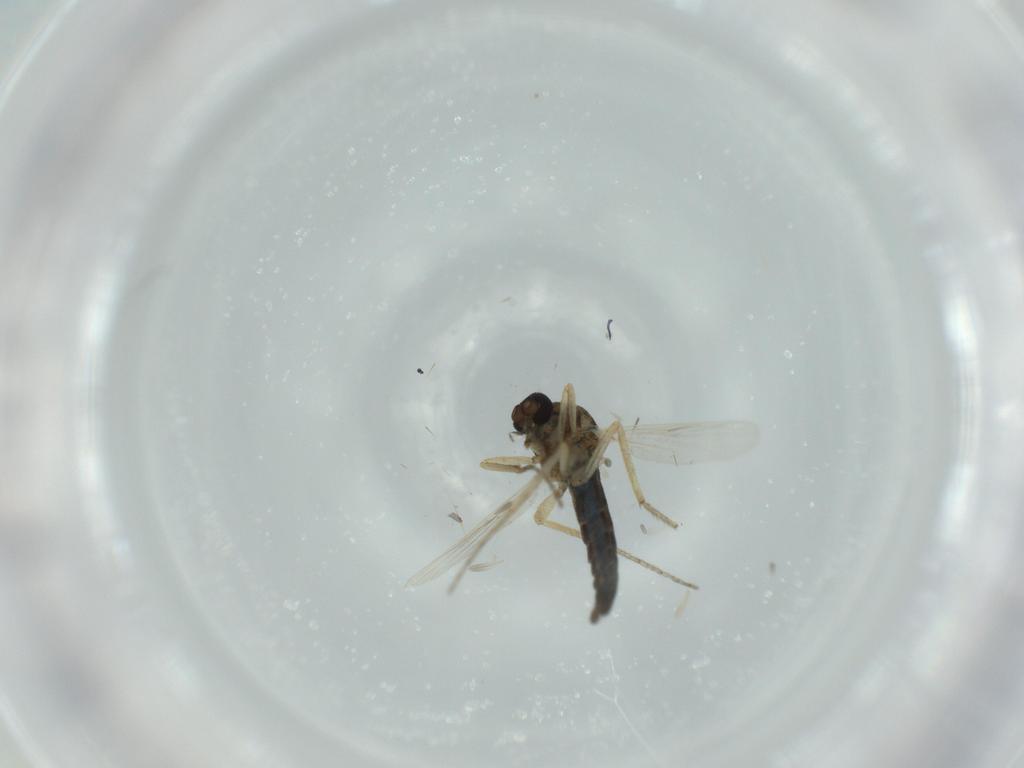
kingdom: Animalia
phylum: Arthropoda
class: Insecta
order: Diptera
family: Ceratopogonidae
